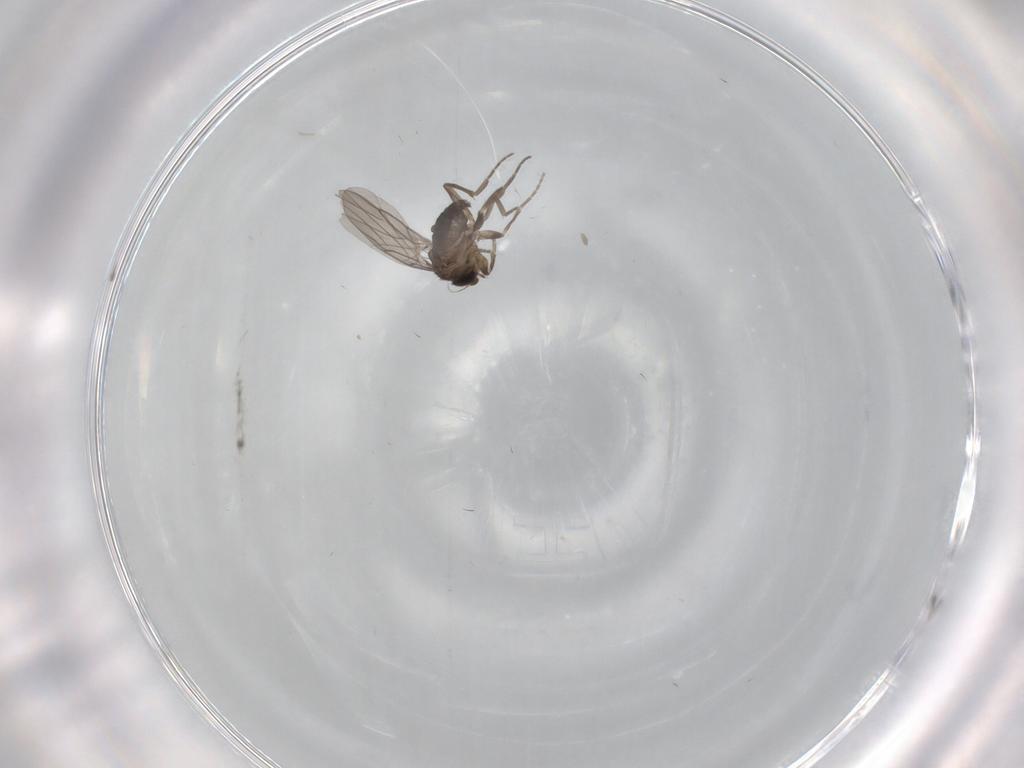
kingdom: Animalia
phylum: Arthropoda
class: Insecta
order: Diptera
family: Phoridae
